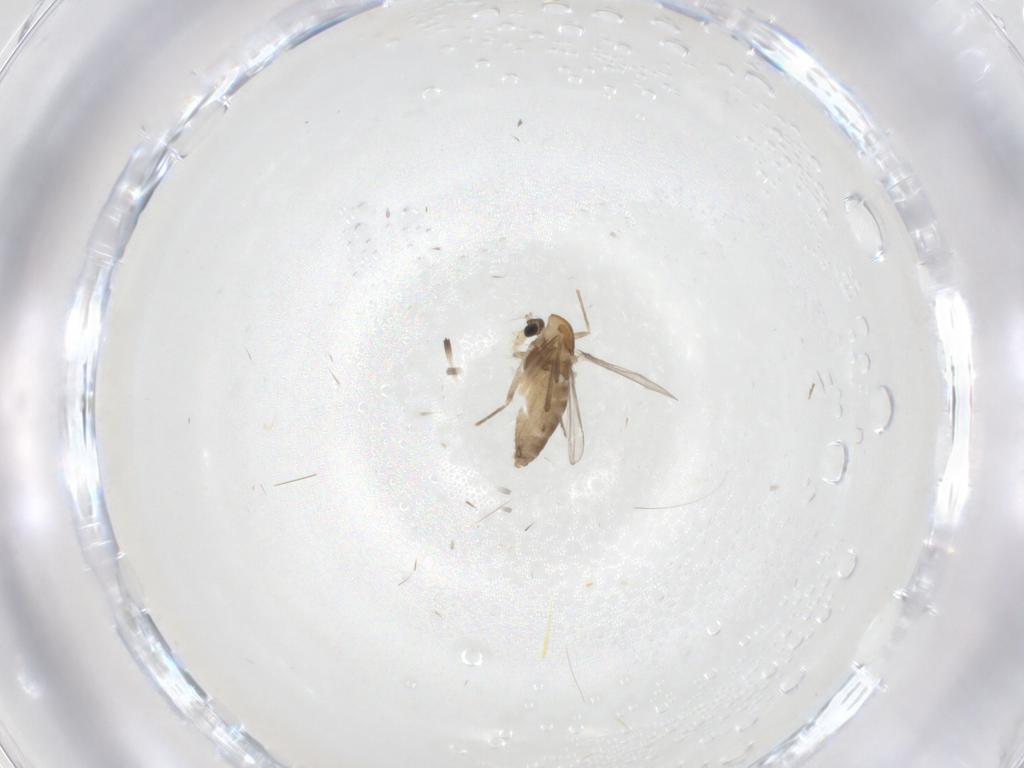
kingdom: Animalia
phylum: Arthropoda
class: Insecta
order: Diptera
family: Chironomidae
